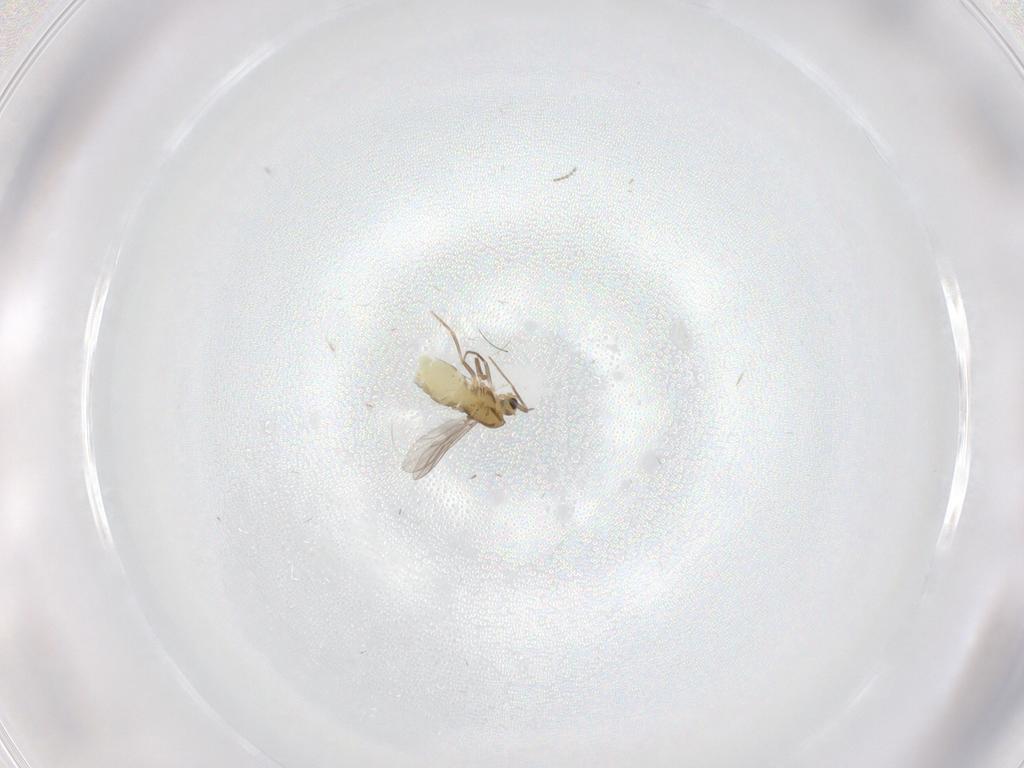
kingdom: Animalia
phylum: Arthropoda
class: Insecta
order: Diptera
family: Chironomidae
